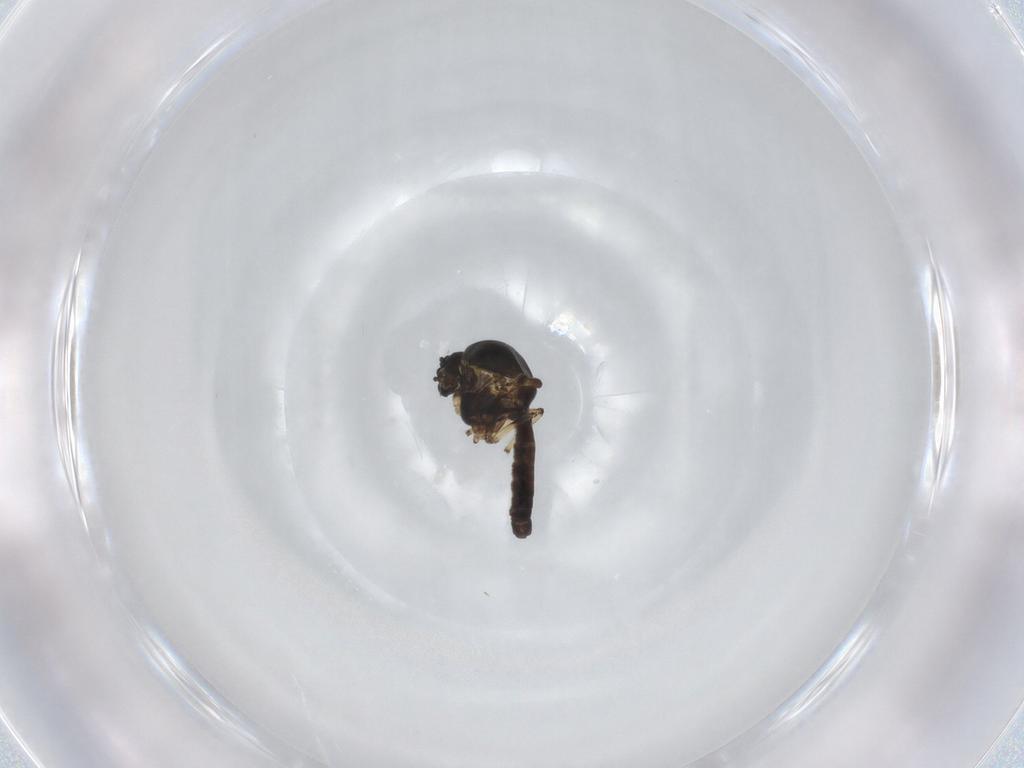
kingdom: Animalia
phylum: Arthropoda
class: Insecta
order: Diptera
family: Ceratopogonidae
